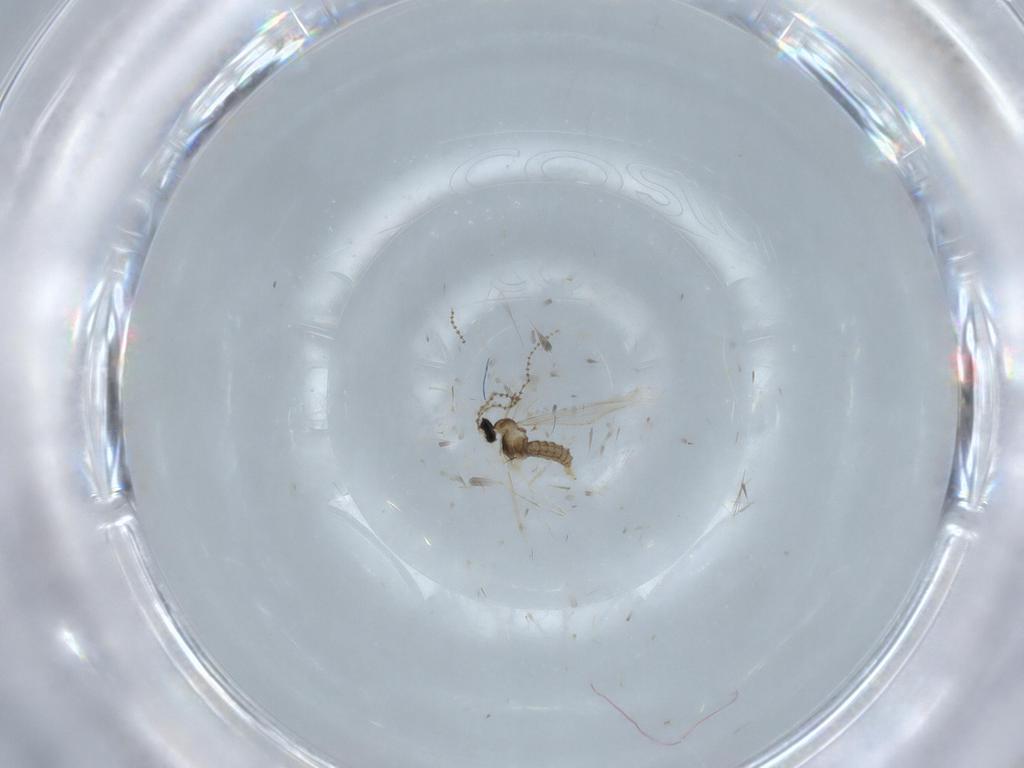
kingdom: Animalia
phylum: Arthropoda
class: Insecta
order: Diptera
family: Cecidomyiidae
